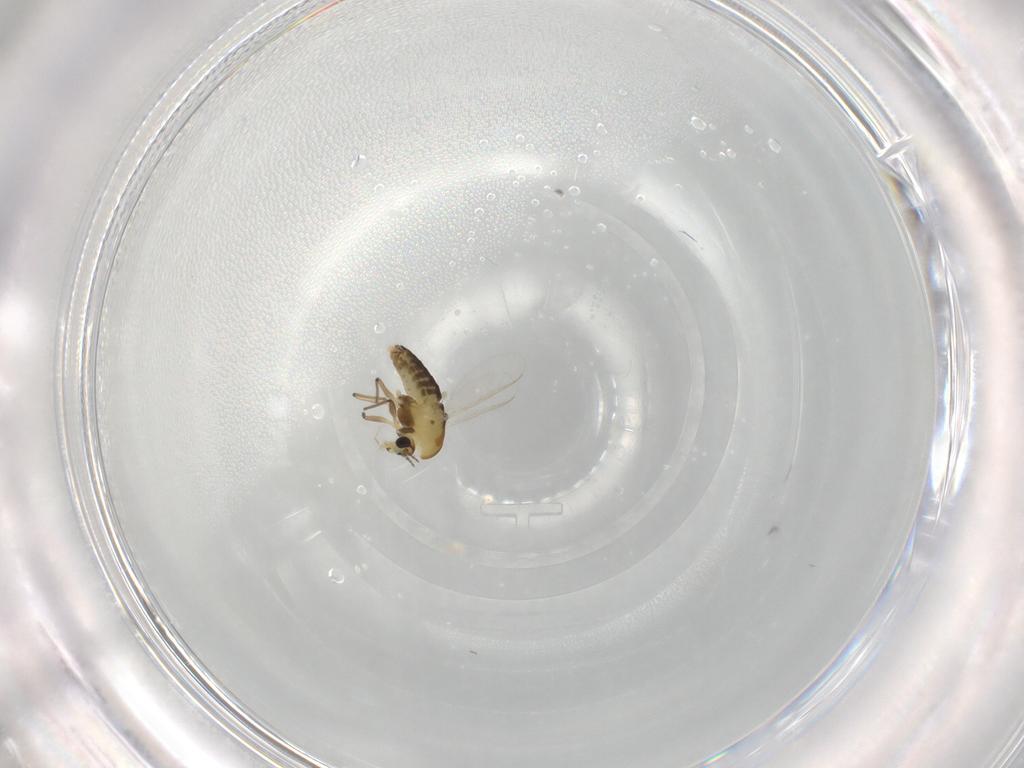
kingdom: Animalia
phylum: Arthropoda
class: Insecta
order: Diptera
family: Chironomidae
